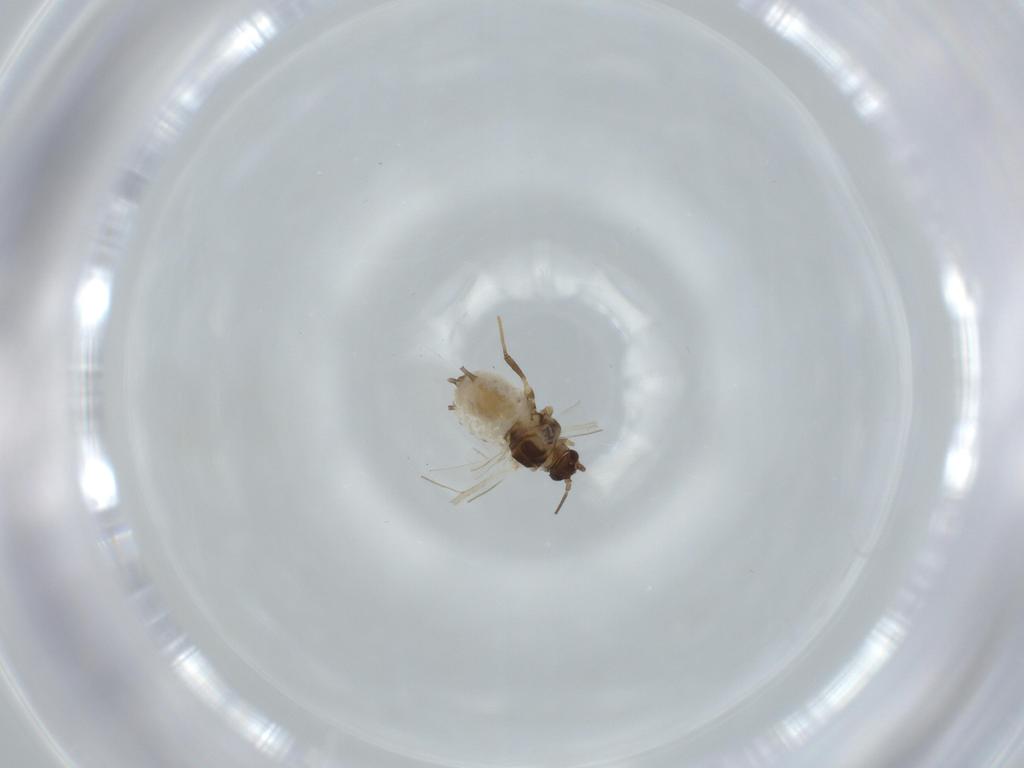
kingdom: Animalia
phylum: Arthropoda
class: Insecta
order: Hemiptera
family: Aphididae
